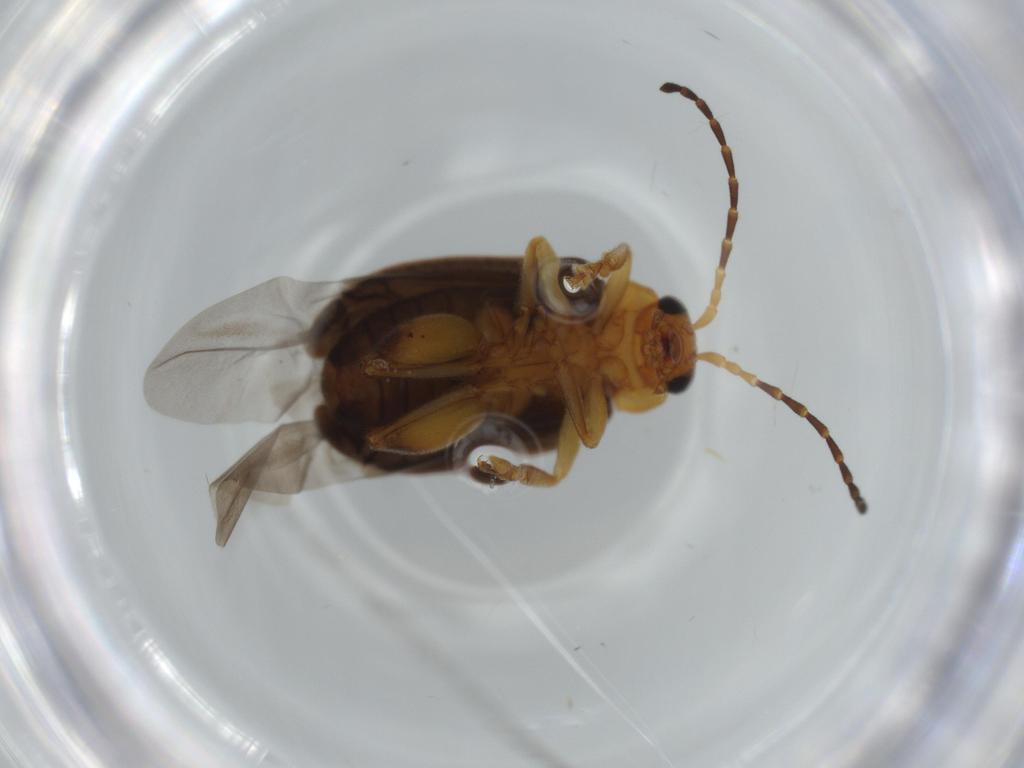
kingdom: Animalia
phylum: Arthropoda
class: Insecta
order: Coleoptera
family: Chrysomelidae
